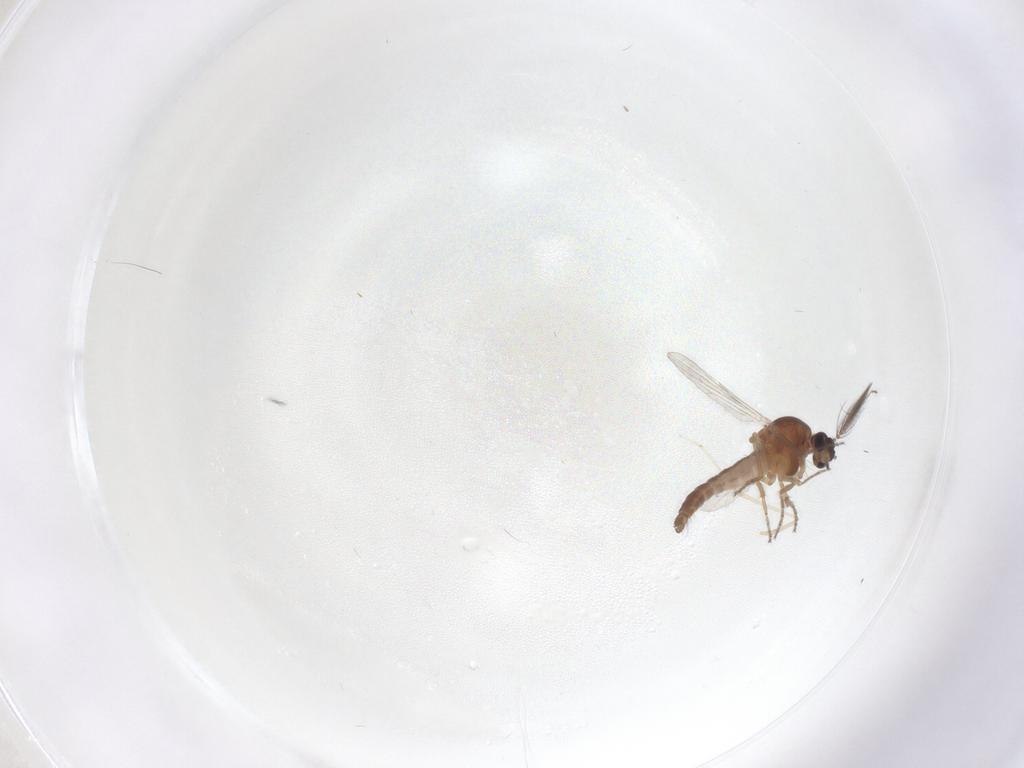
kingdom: Animalia
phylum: Arthropoda
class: Insecta
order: Diptera
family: Ceratopogonidae
